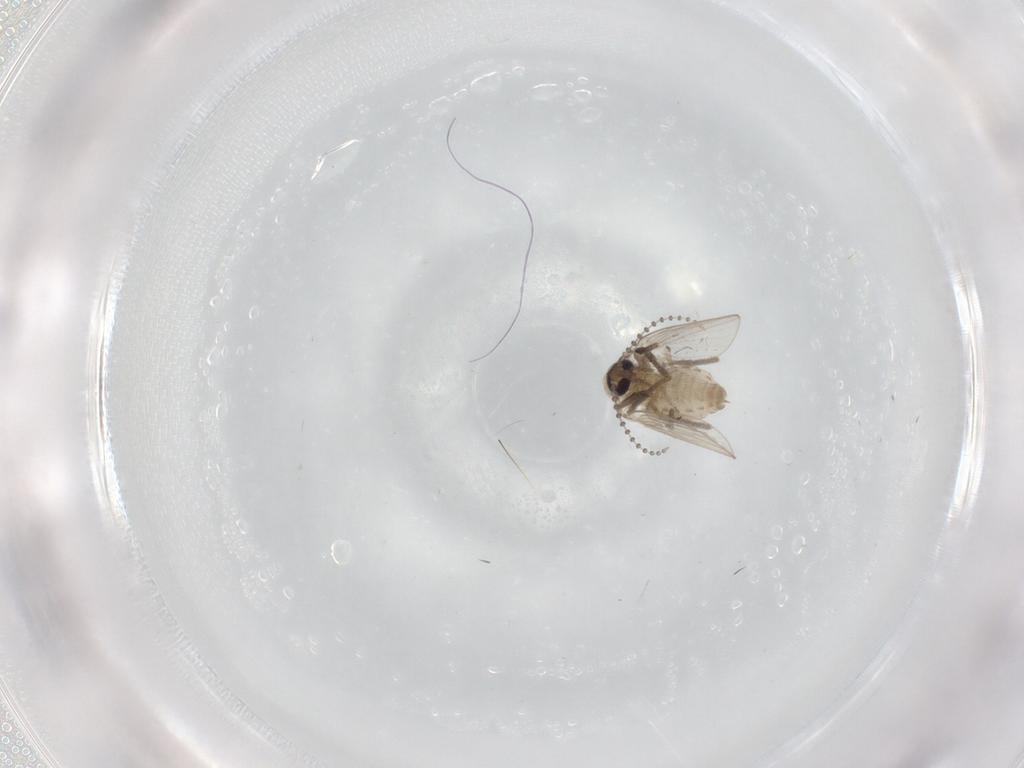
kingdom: Animalia
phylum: Arthropoda
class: Insecta
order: Diptera
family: Psychodidae
